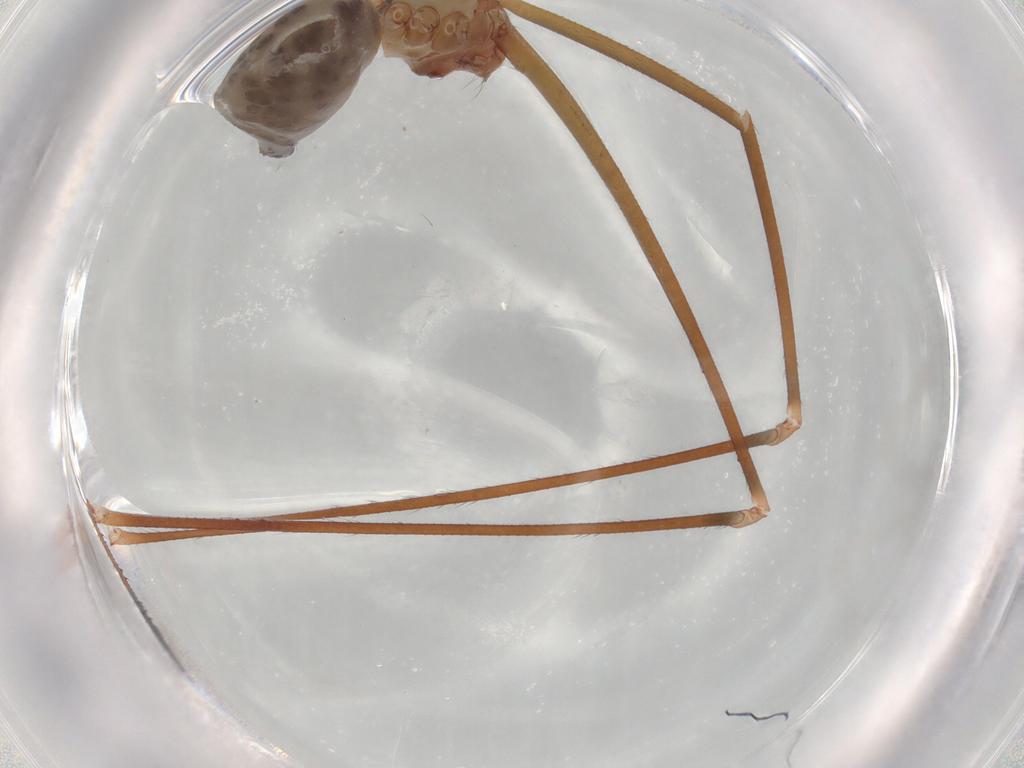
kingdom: Animalia
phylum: Arthropoda
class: Arachnida
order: Araneae
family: Pholcidae
